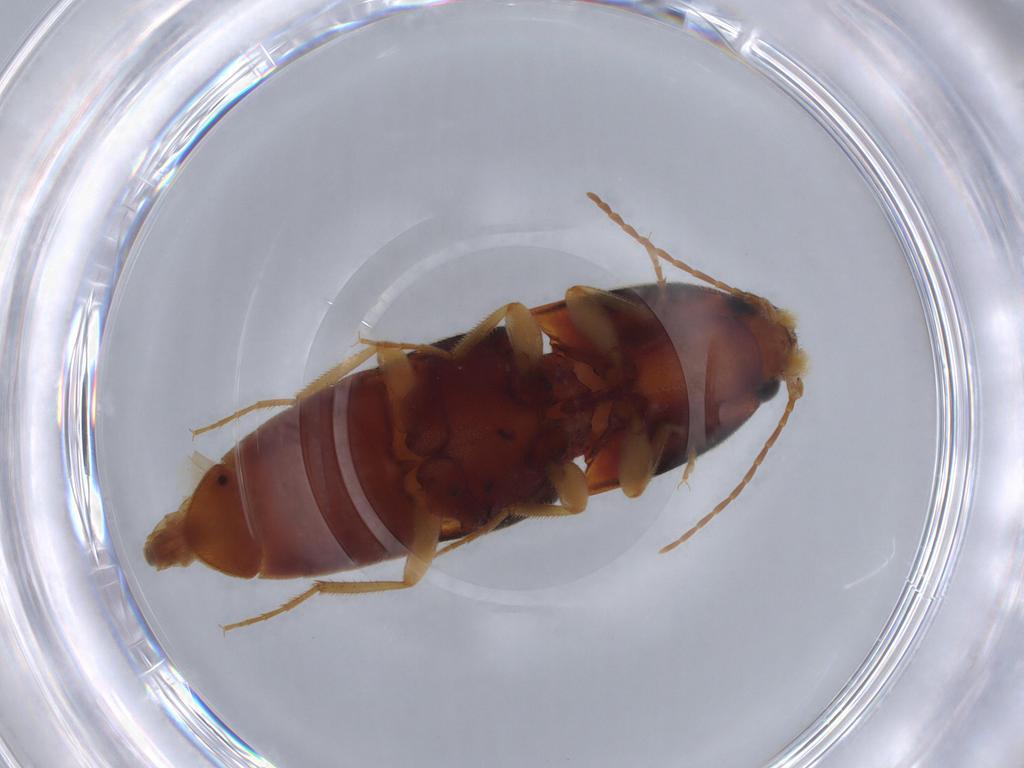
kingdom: Animalia
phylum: Arthropoda
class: Insecta
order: Coleoptera
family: Elateridae
